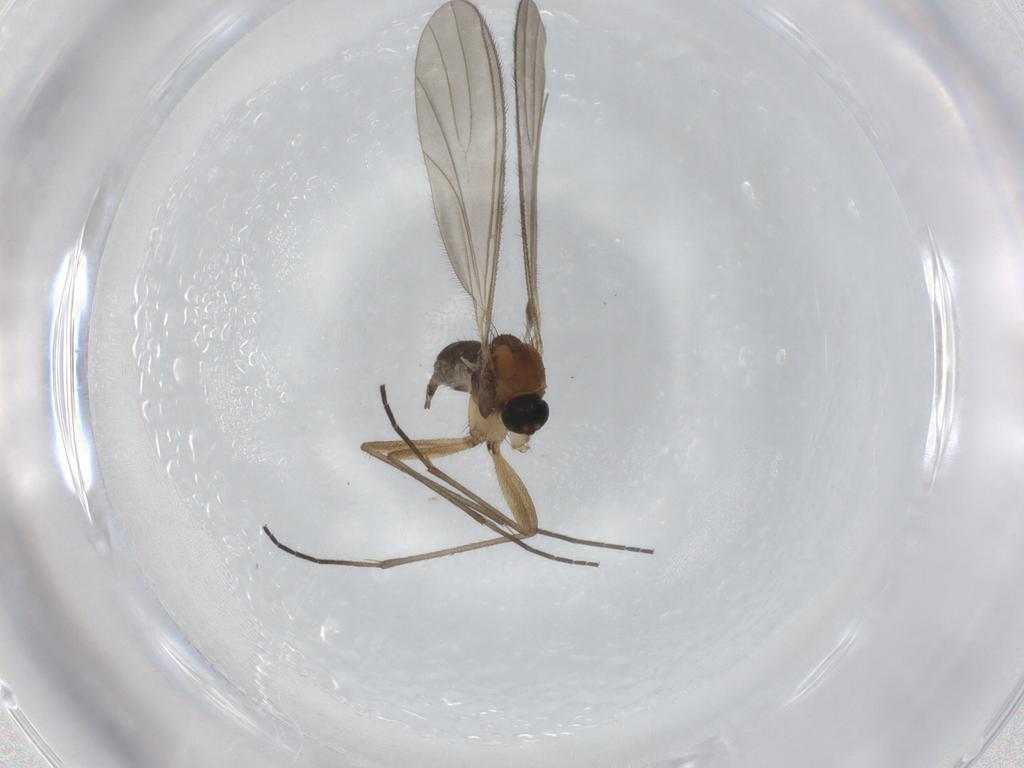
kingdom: Animalia
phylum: Arthropoda
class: Insecta
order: Diptera
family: Sciaridae
